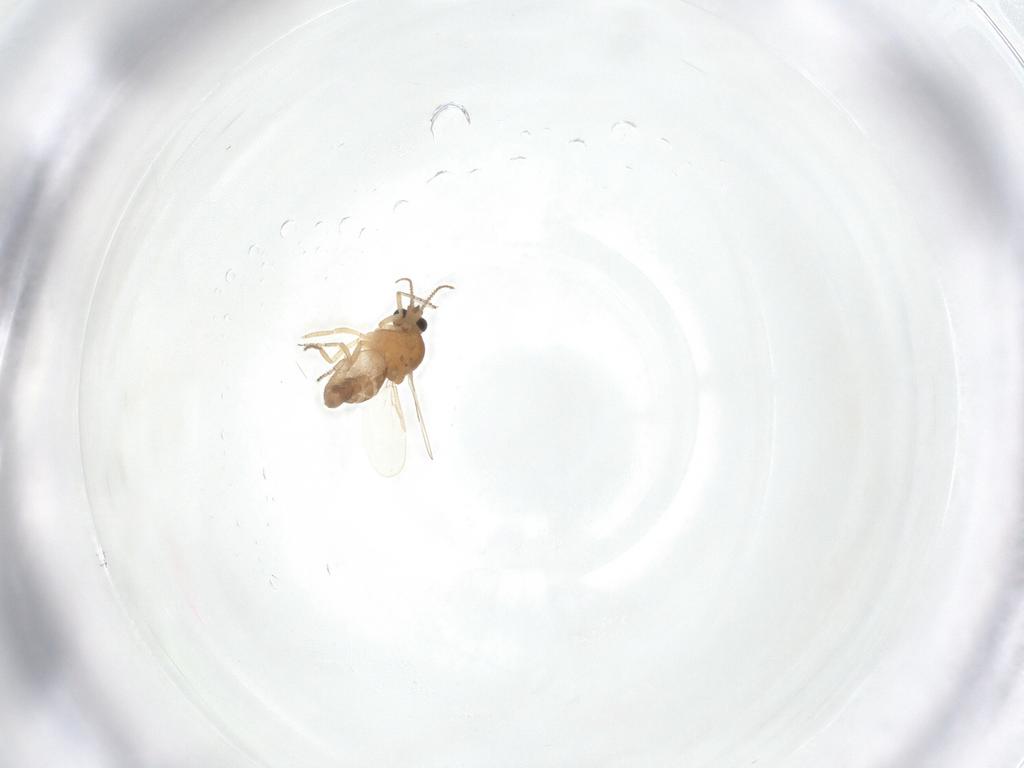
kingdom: Animalia
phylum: Arthropoda
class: Insecta
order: Diptera
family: Ceratopogonidae
